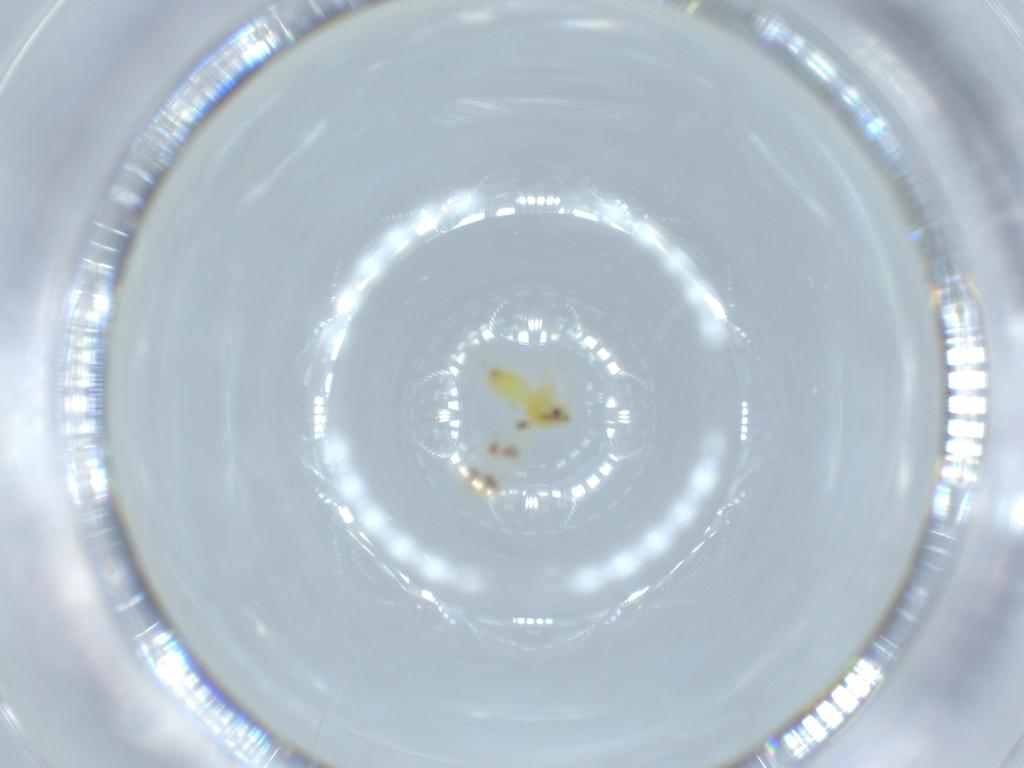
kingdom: Animalia
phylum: Arthropoda
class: Insecta
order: Hemiptera
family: Aleyrodidae
